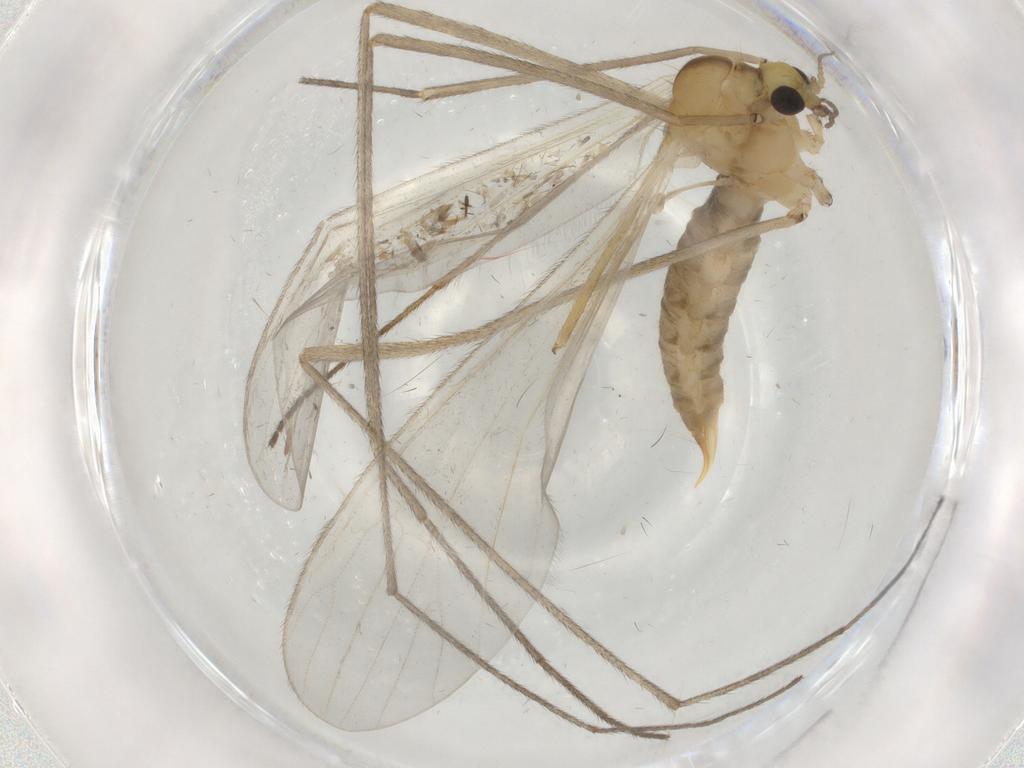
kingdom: Animalia
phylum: Arthropoda
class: Insecta
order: Diptera
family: Limoniidae
